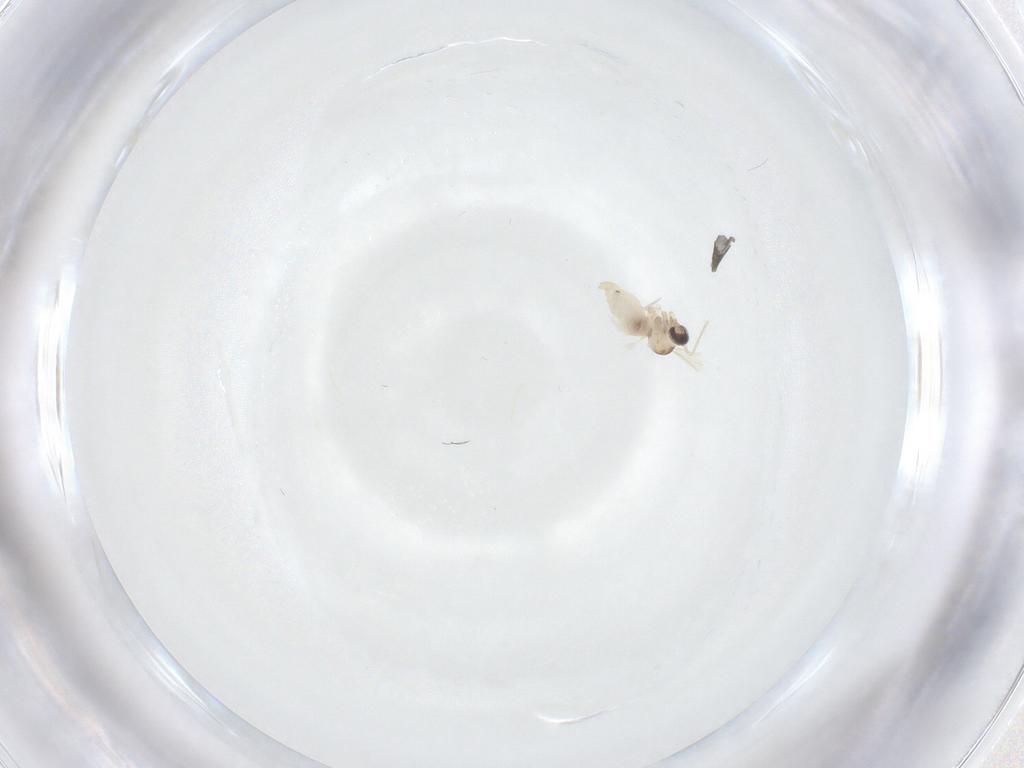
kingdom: Animalia
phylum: Arthropoda
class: Insecta
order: Diptera
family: Cecidomyiidae
